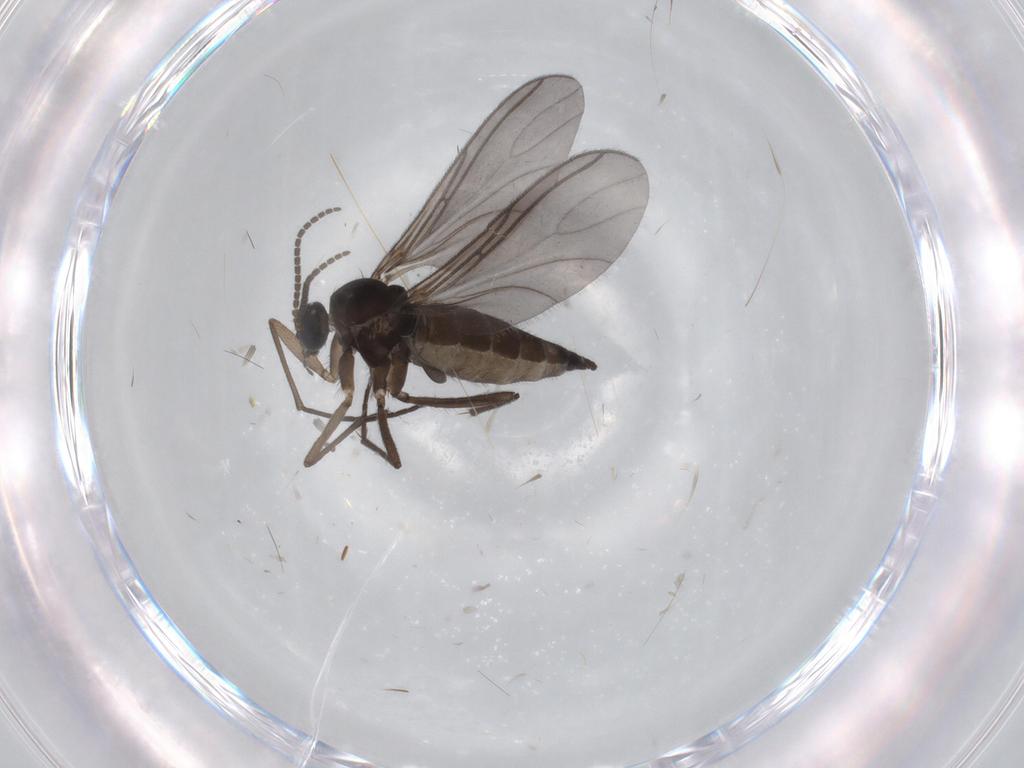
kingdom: Animalia
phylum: Arthropoda
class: Insecta
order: Diptera
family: Sciaridae
